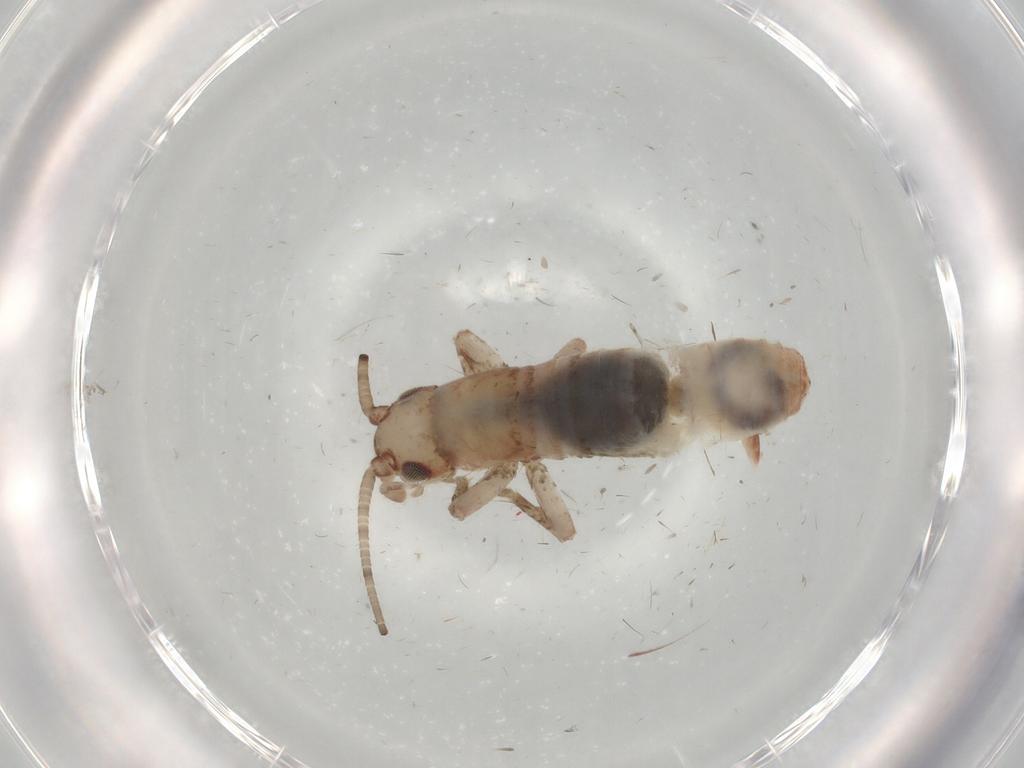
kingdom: Animalia
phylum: Arthropoda
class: Insecta
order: Orthoptera
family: Mogoplistidae
